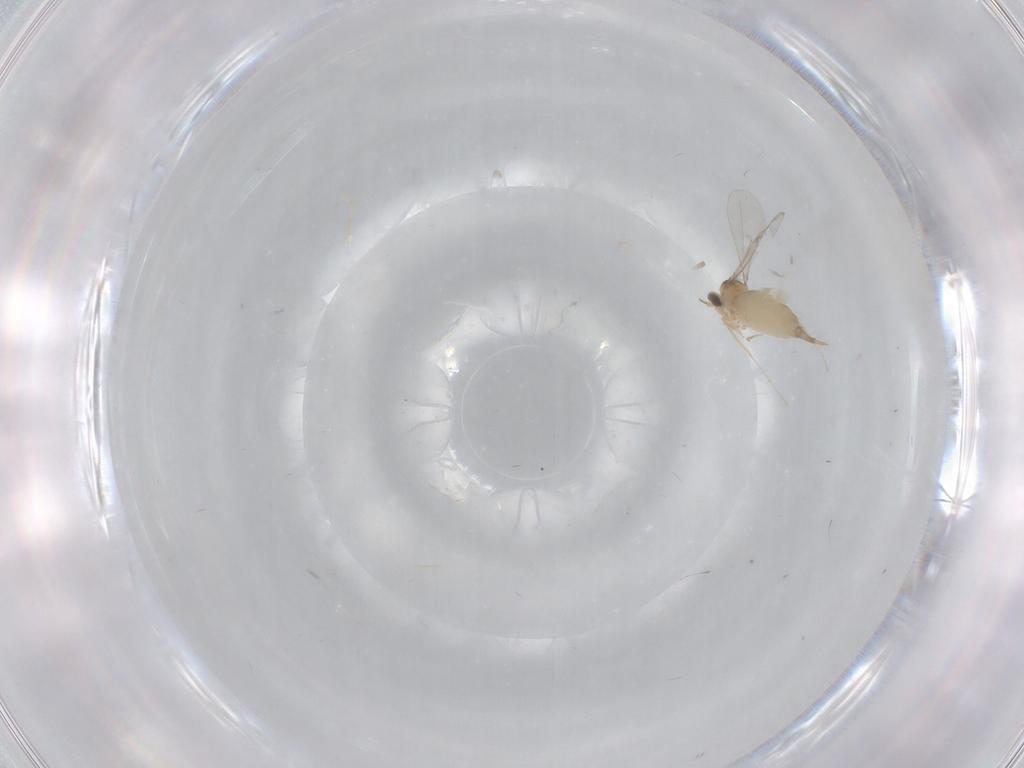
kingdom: Animalia
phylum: Arthropoda
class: Insecta
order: Diptera
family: Chironomidae
